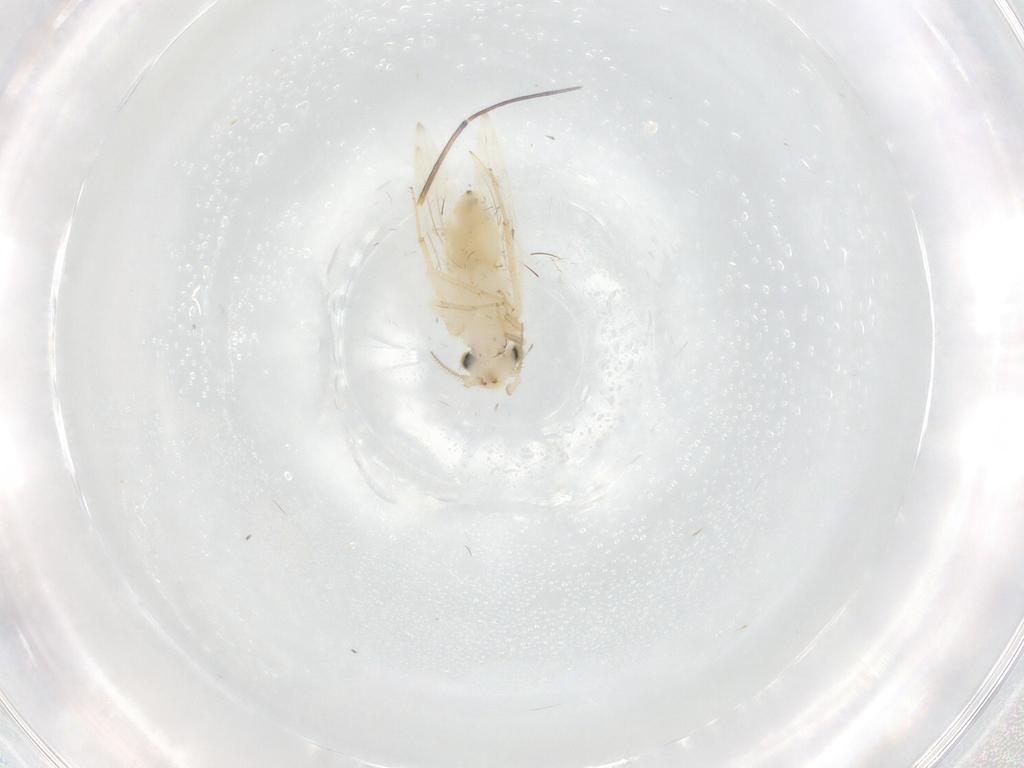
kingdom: Animalia
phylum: Arthropoda
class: Insecta
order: Psocodea
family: Lepidopsocidae
